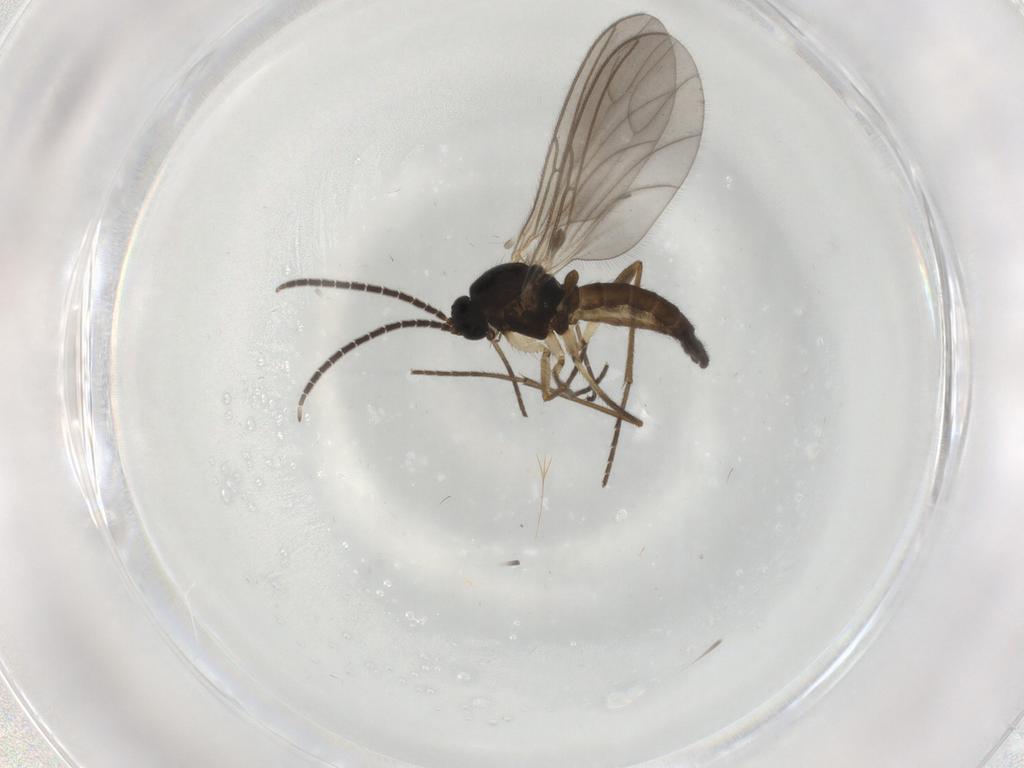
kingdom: Animalia
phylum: Arthropoda
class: Insecta
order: Diptera
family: Sciaridae
